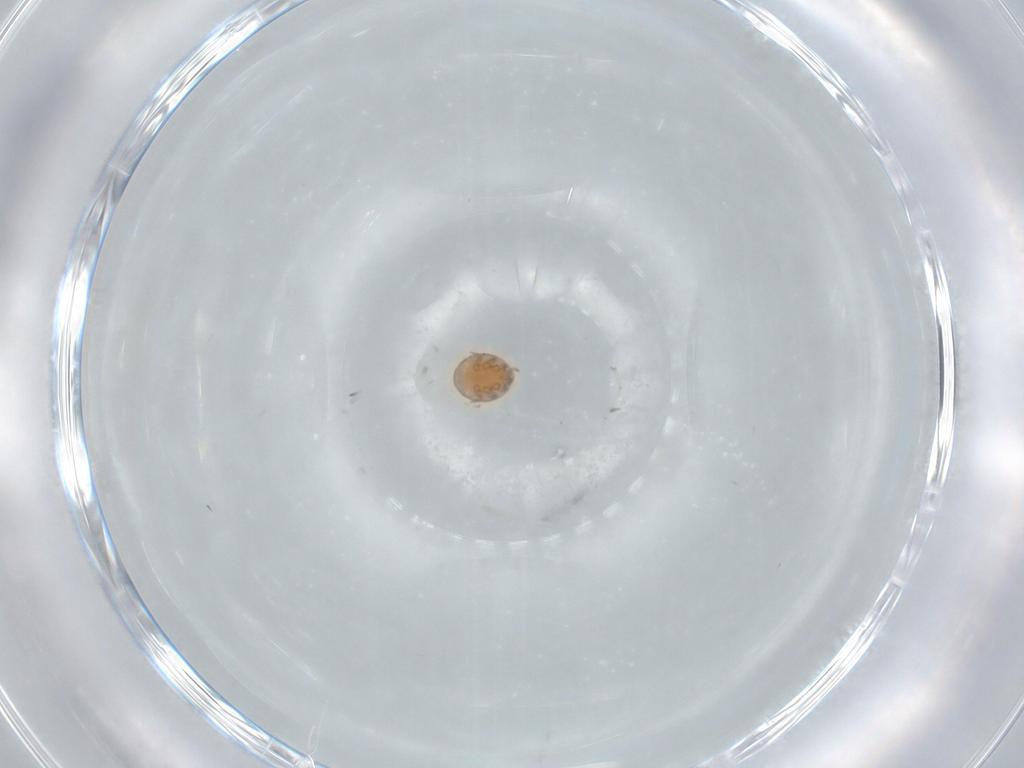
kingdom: Animalia
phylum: Arthropoda
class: Arachnida
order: Mesostigmata
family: Trematuridae
